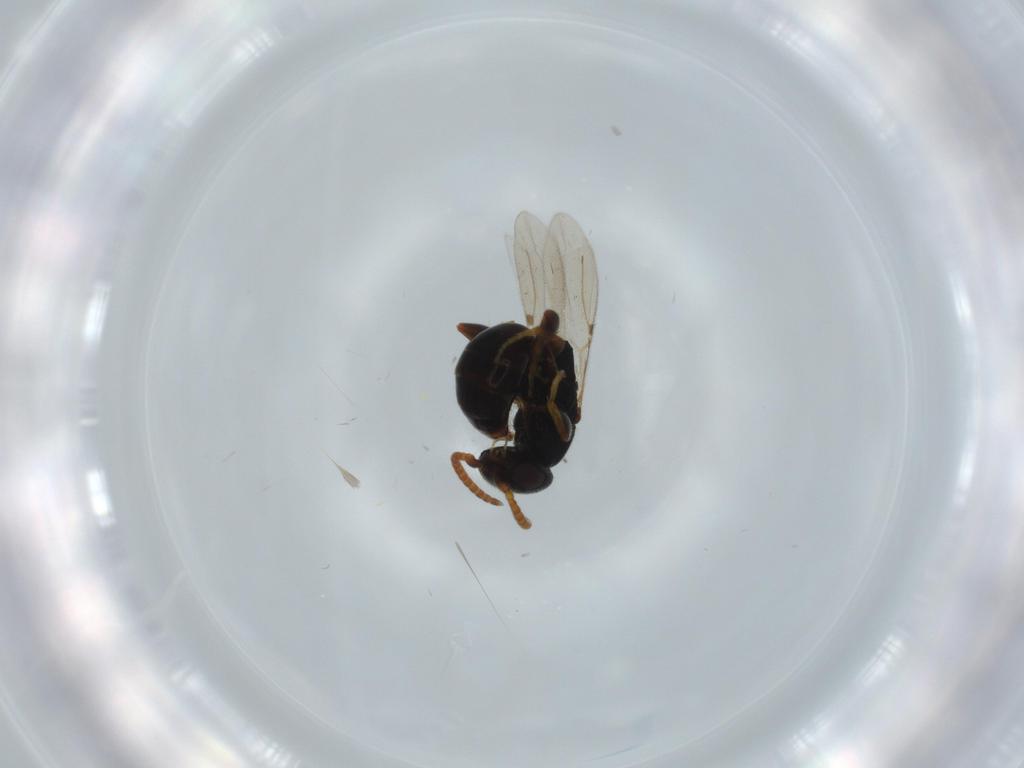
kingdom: Animalia
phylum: Arthropoda
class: Insecta
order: Hymenoptera
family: Bethylidae
